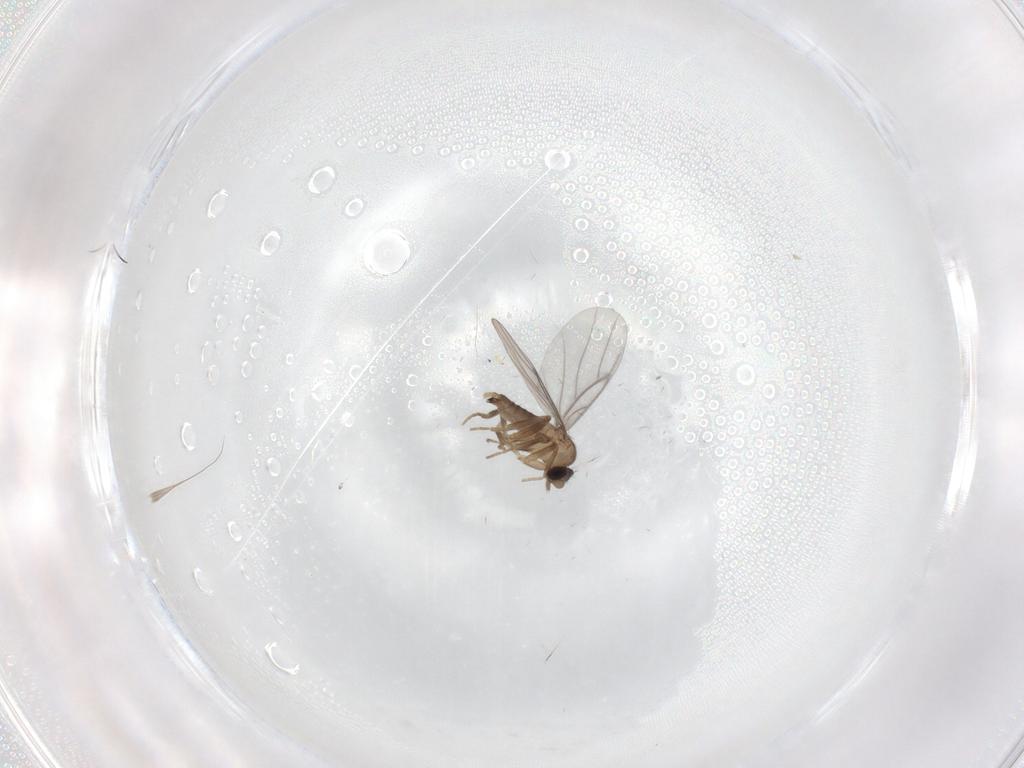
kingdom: Animalia
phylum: Arthropoda
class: Insecta
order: Diptera
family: Psychodidae
